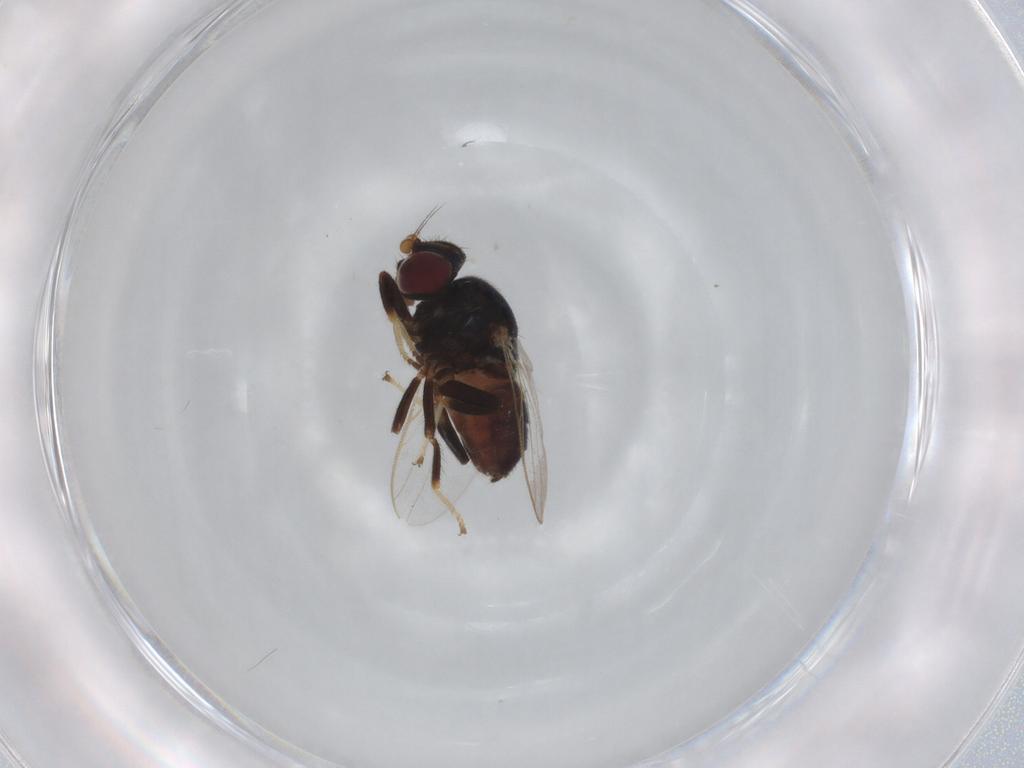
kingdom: Animalia
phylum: Arthropoda
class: Insecta
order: Diptera
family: Chloropidae
